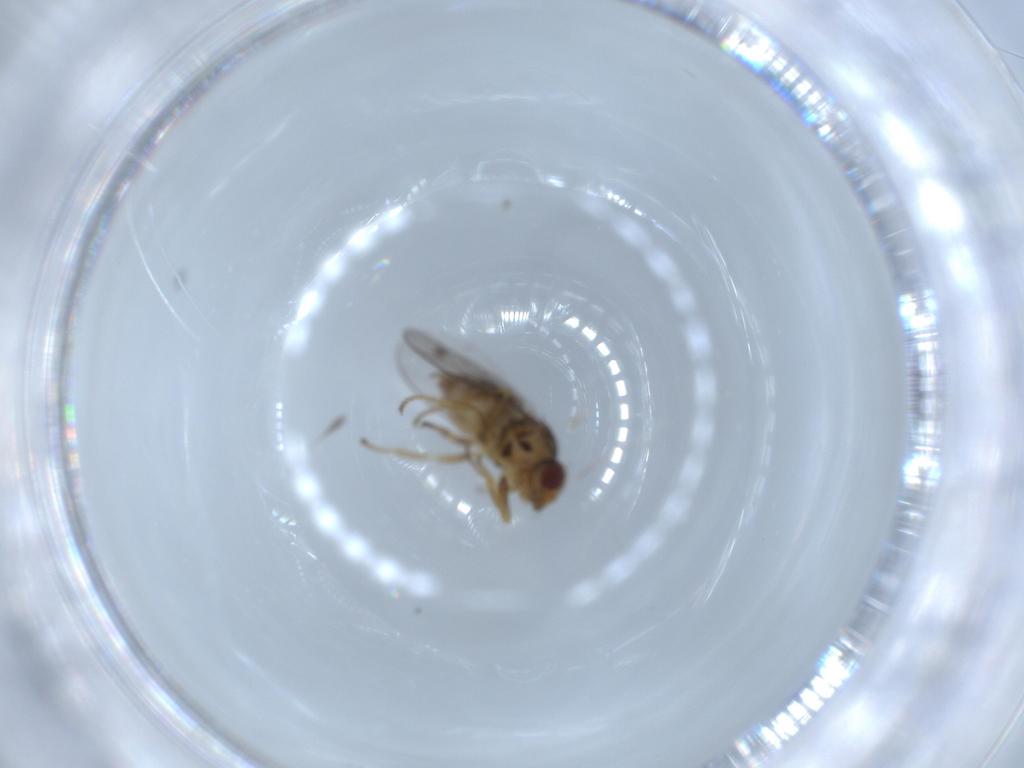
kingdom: Animalia
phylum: Arthropoda
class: Insecta
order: Diptera
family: Chloropidae
